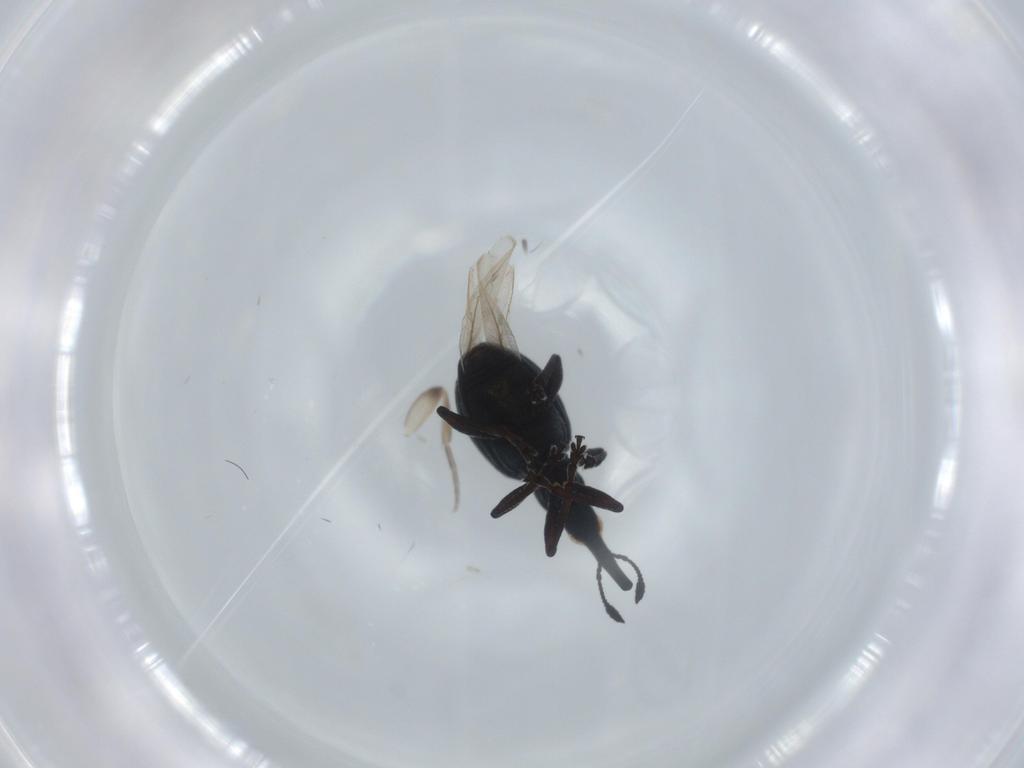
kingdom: Animalia
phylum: Arthropoda
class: Insecta
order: Coleoptera
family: Brentidae
